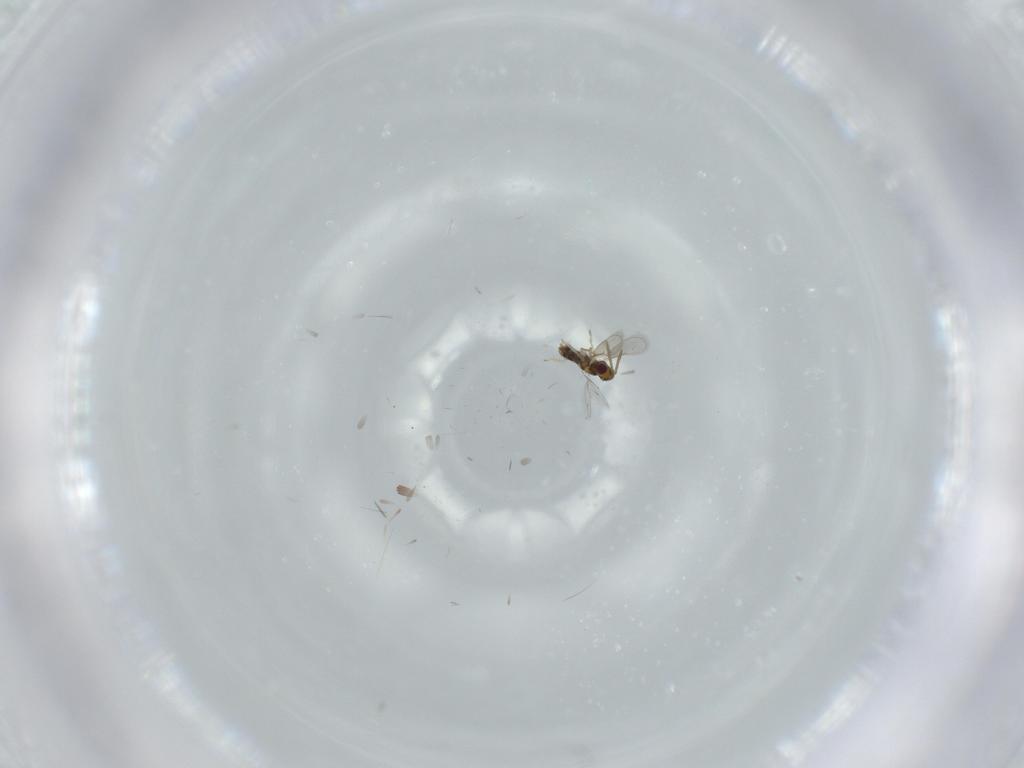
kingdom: Animalia
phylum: Arthropoda
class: Insecta
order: Hymenoptera
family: Aphelinidae
